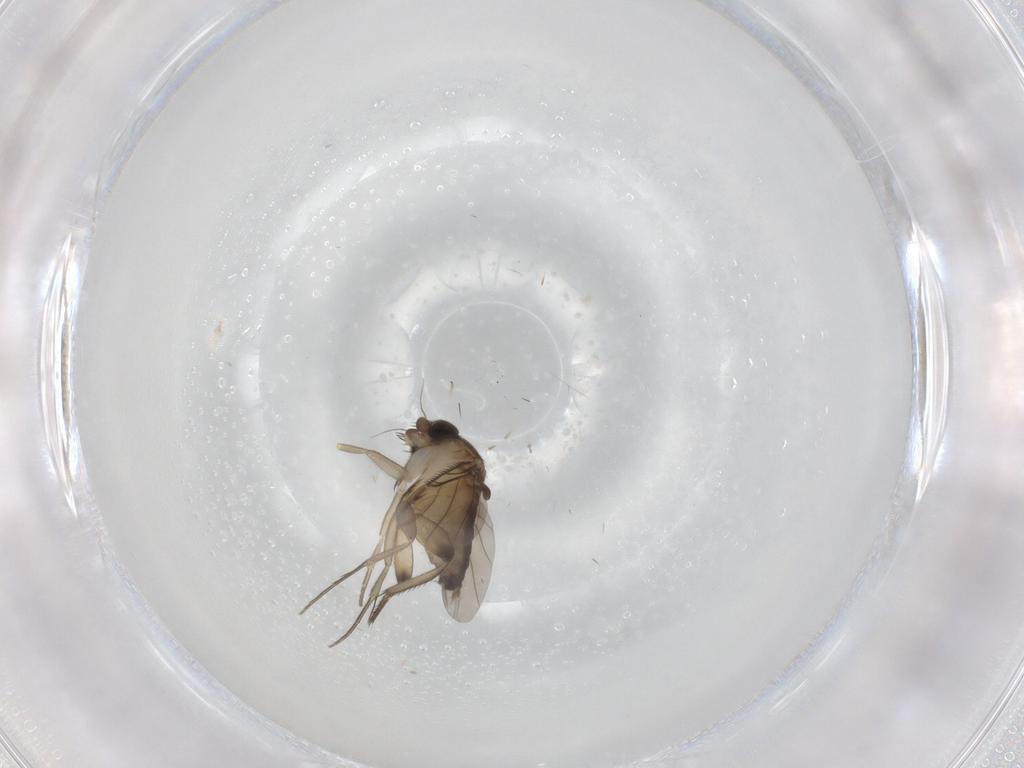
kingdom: Animalia
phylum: Arthropoda
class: Insecta
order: Diptera
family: Phoridae
